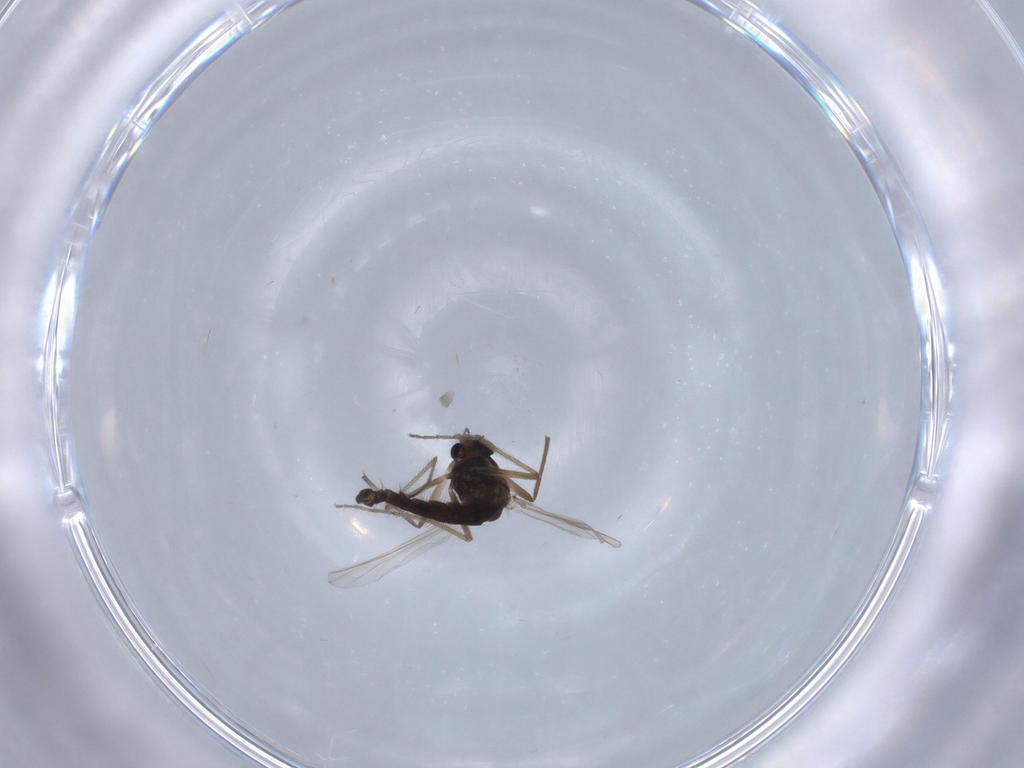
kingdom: Animalia
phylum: Arthropoda
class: Insecta
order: Diptera
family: Chironomidae
